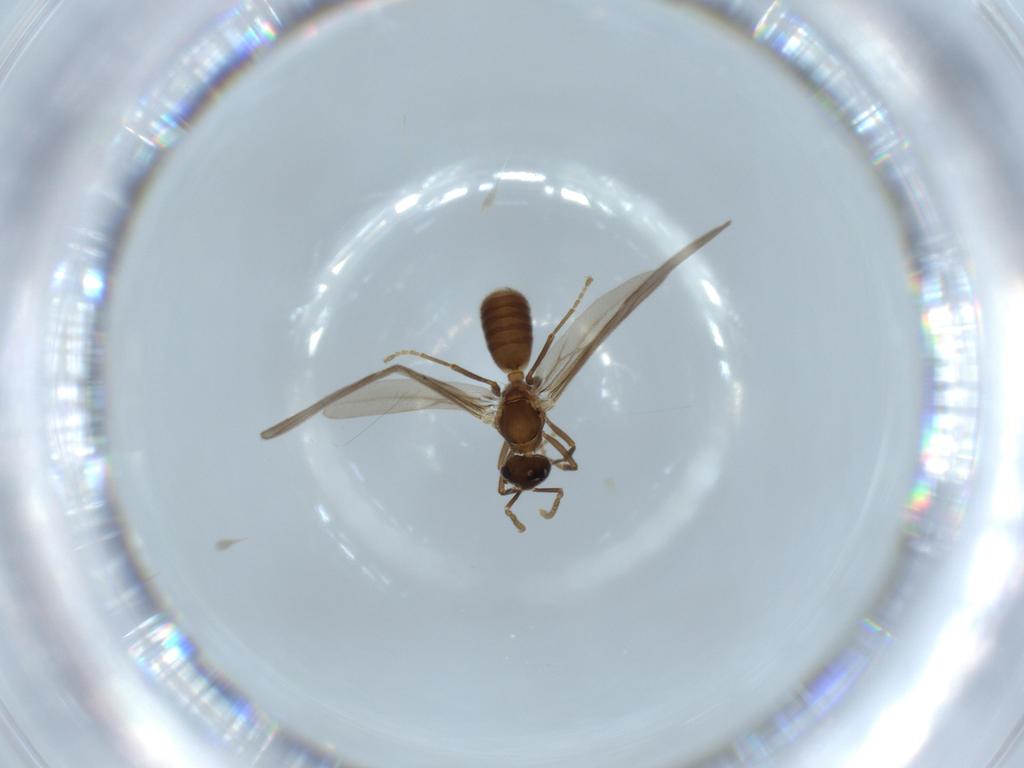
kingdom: Animalia
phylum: Arthropoda
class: Insecta
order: Hymenoptera
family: Formicidae
